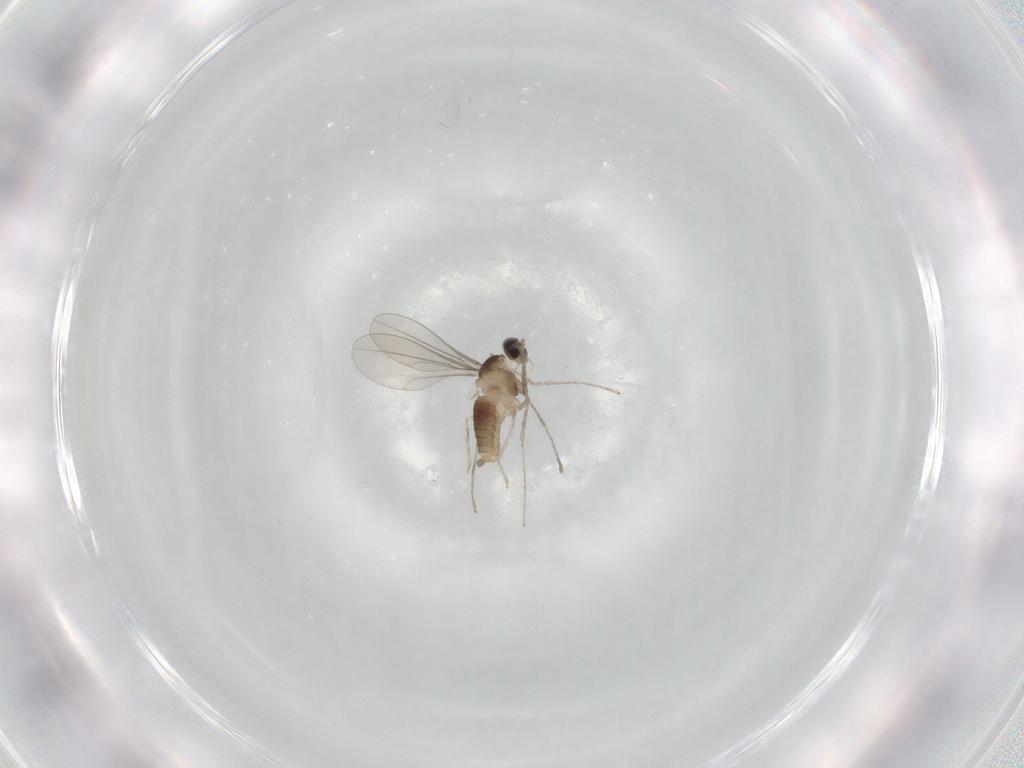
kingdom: Animalia
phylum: Arthropoda
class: Insecta
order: Diptera
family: Cecidomyiidae
